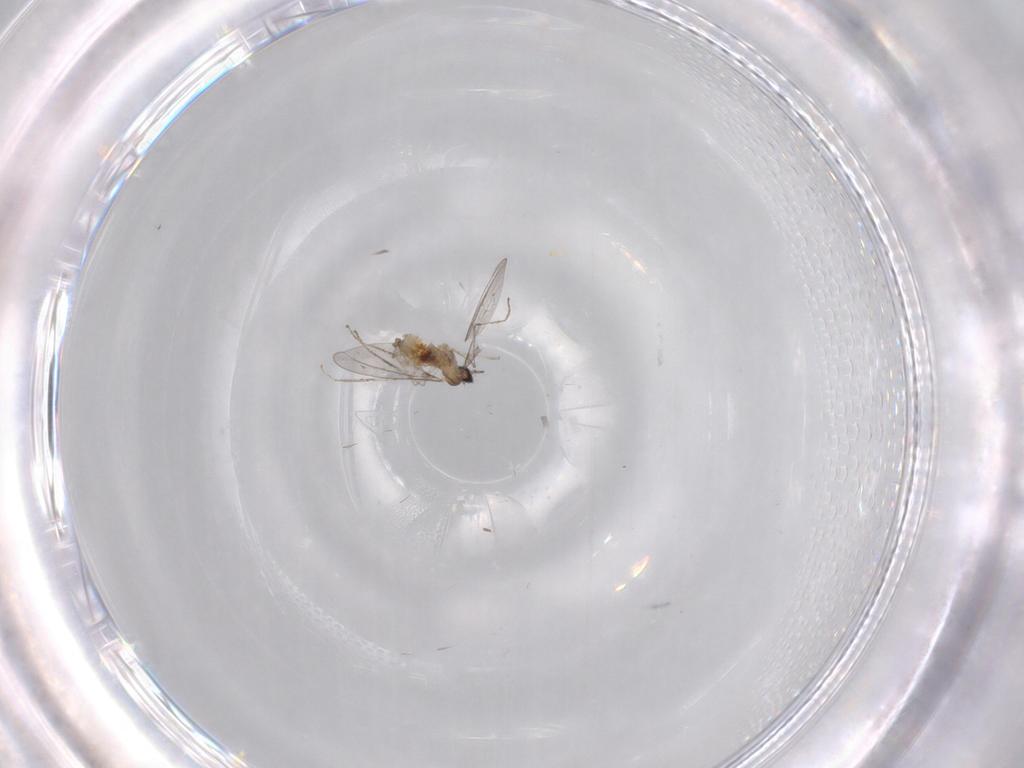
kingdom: Animalia
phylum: Arthropoda
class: Insecta
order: Diptera
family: Cecidomyiidae
